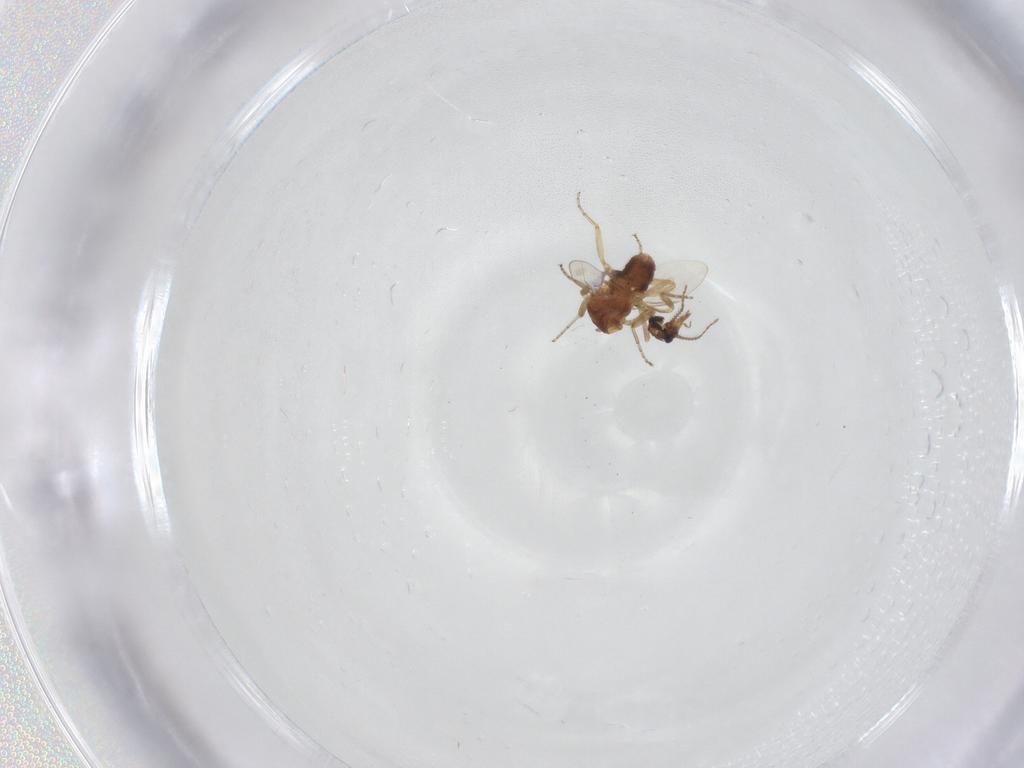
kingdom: Animalia
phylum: Arthropoda
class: Insecta
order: Diptera
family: Ceratopogonidae
